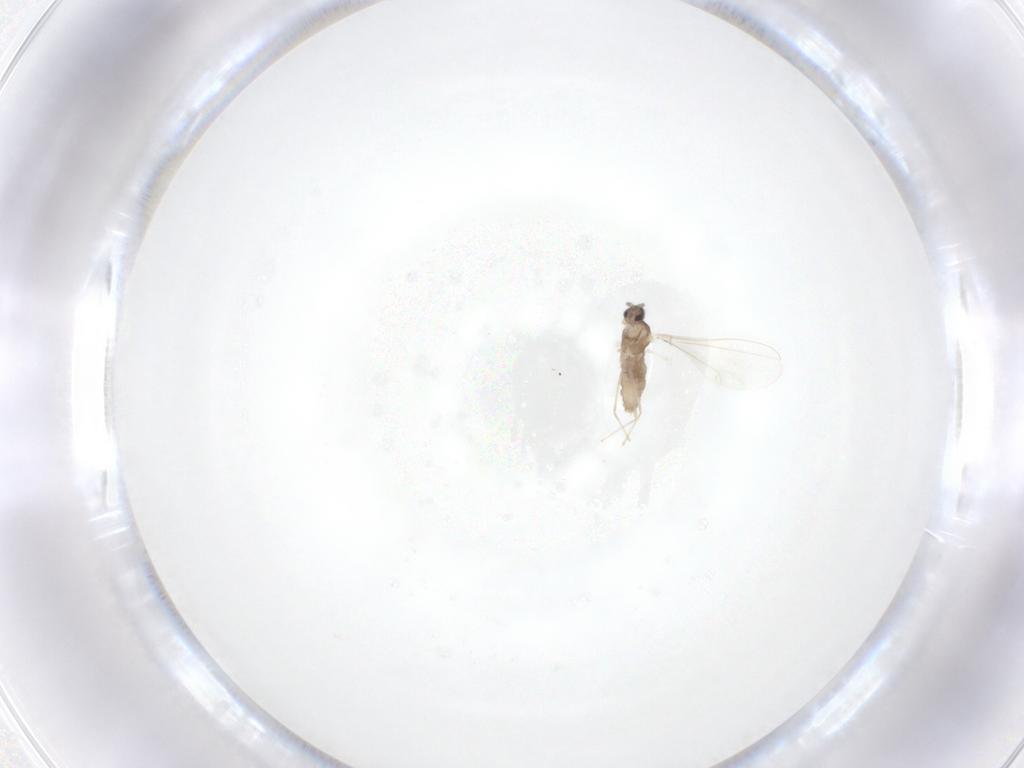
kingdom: Animalia
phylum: Arthropoda
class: Insecta
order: Diptera
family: Cecidomyiidae
